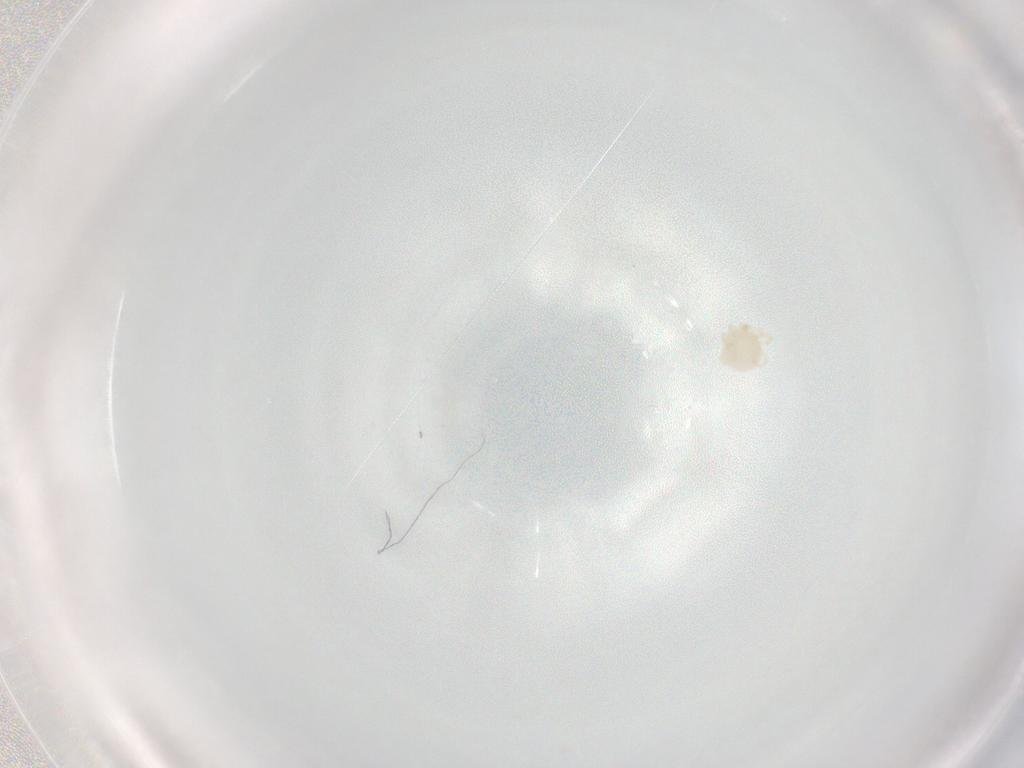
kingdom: Animalia
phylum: Arthropoda
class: Arachnida
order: Trombidiformes
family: Sperchontidae
